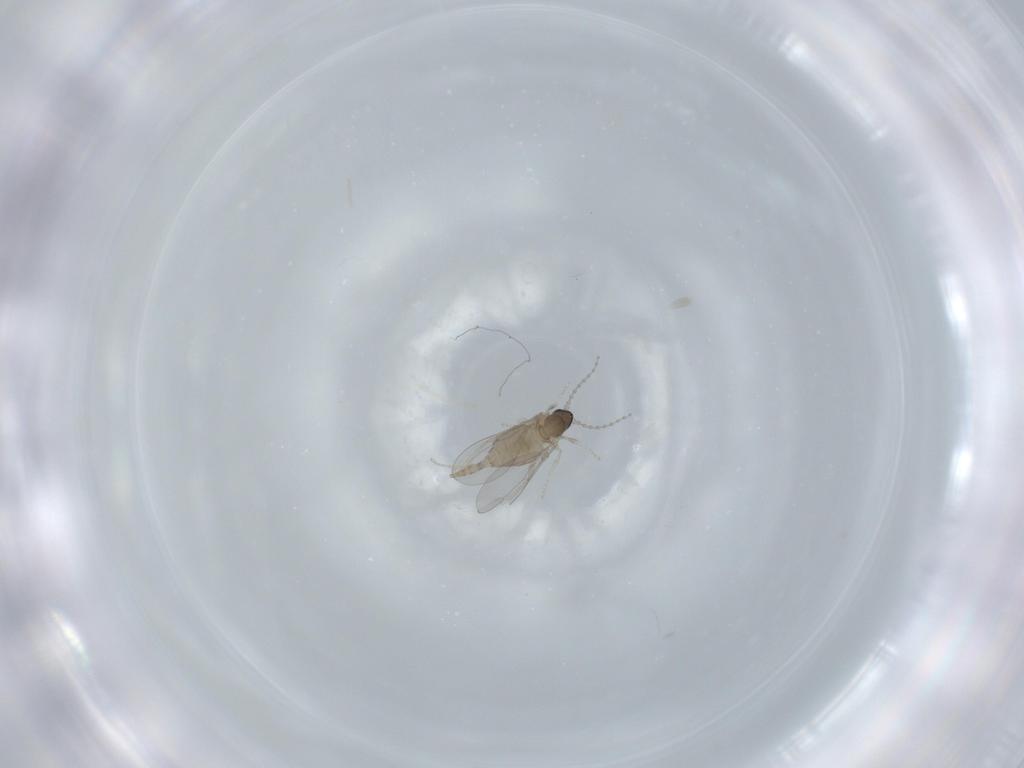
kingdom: Animalia
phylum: Arthropoda
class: Insecta
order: Diptera
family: Cecidomyiidae
